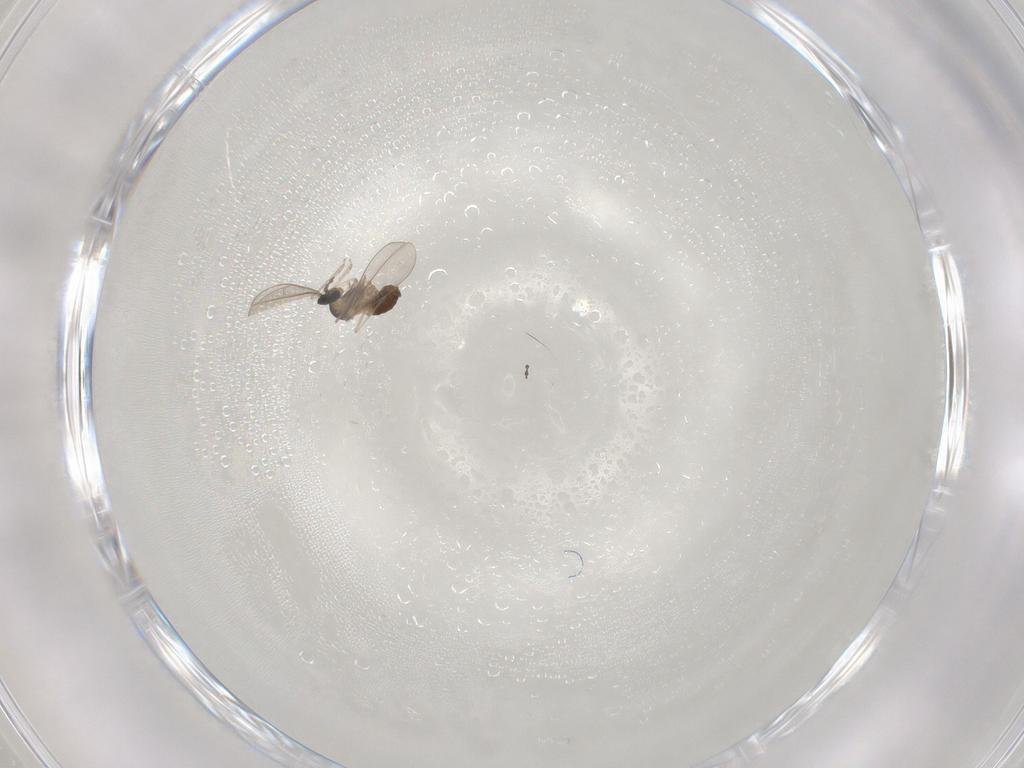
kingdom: Animalia
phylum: Arthropoda
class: Insecta
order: Diptera
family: Cecidomyiidae
